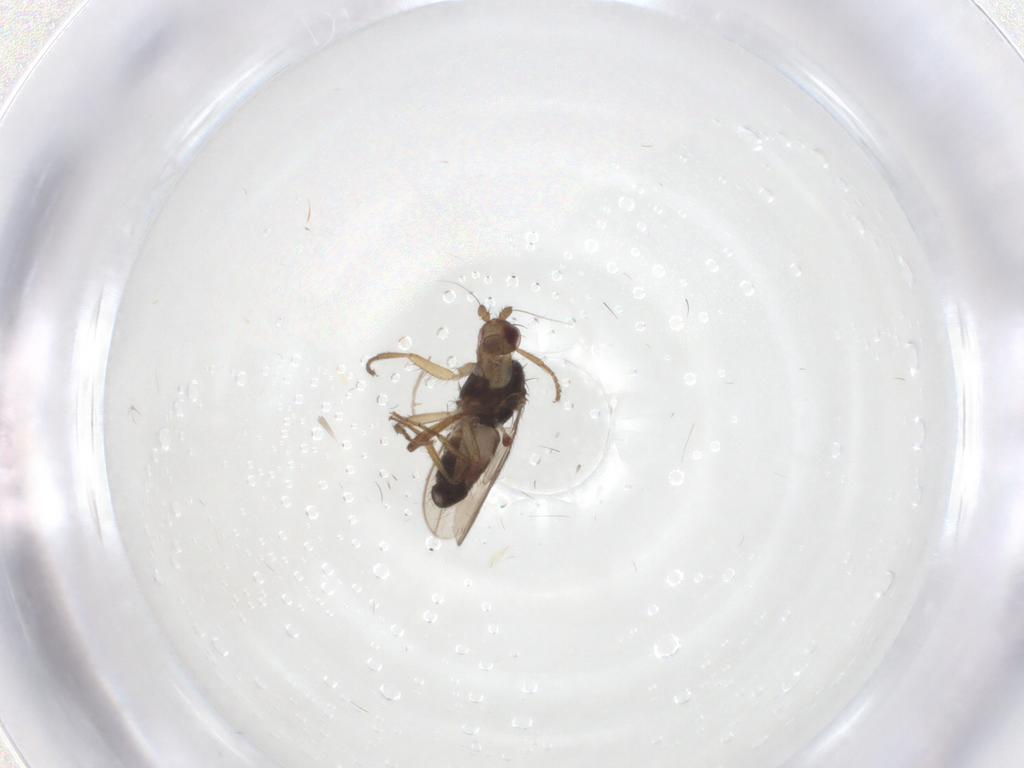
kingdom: Animalia
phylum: Arthropoda
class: Insecta
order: Diptera
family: Sphaeroceridae
